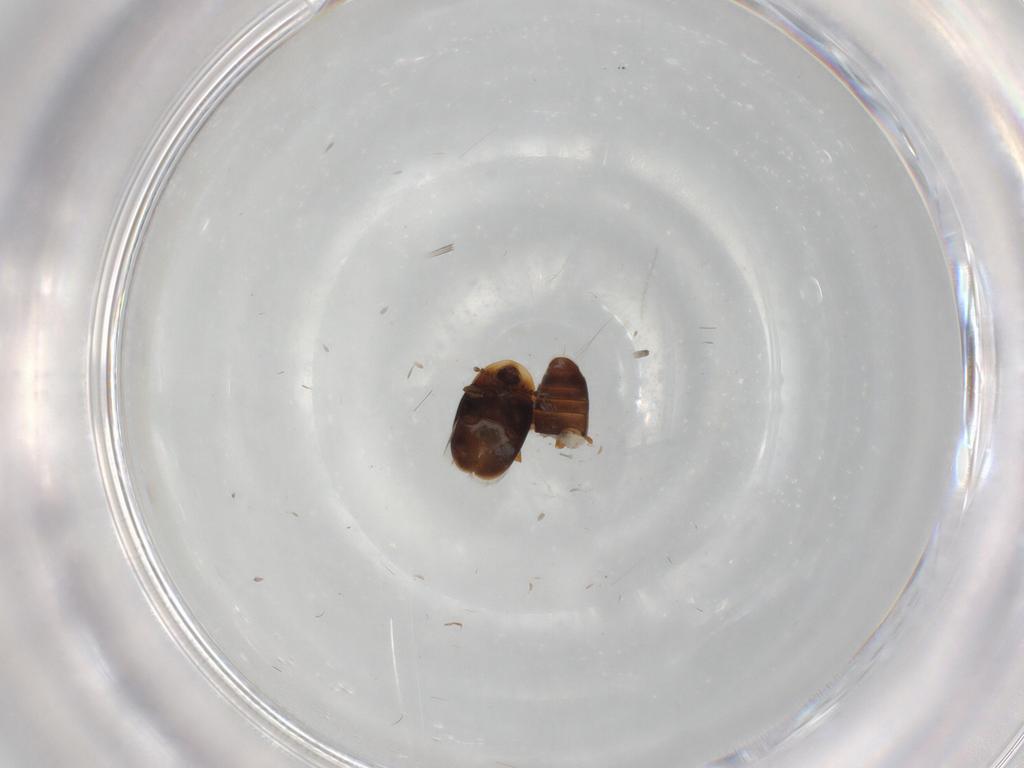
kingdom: Animalia
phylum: Arthropoda
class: Insecta
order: Coleoptera
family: Corylophidae
